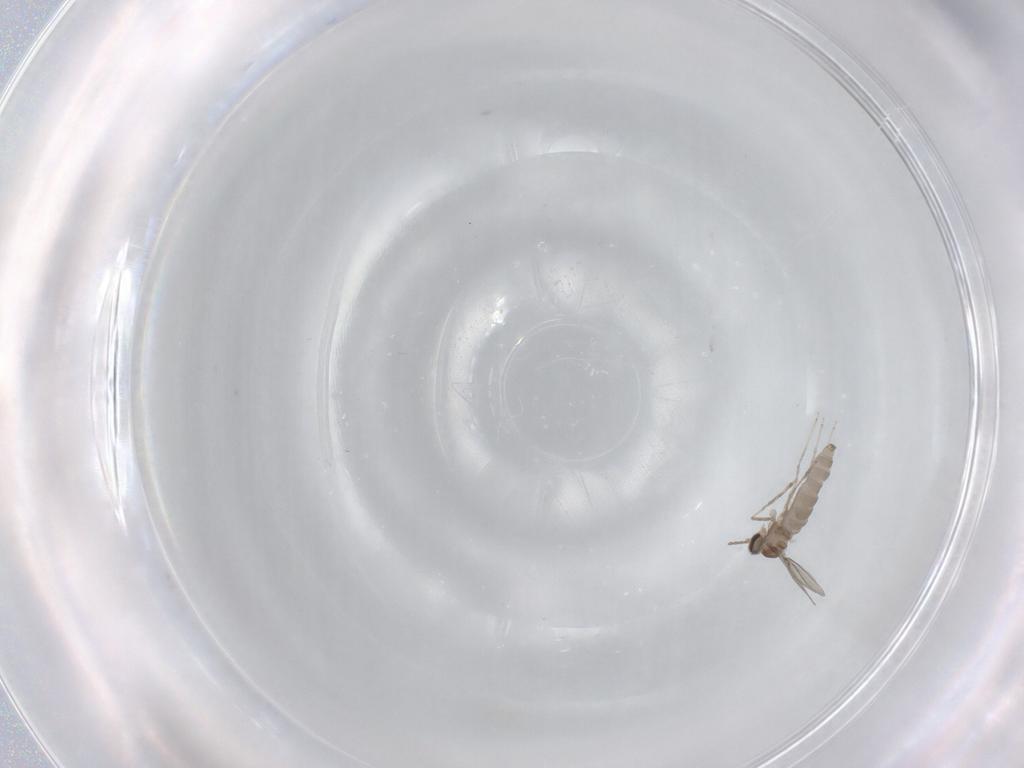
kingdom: Animalia
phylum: Arthropoda
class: Insecta
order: Diptera
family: Cecidomyiidae
